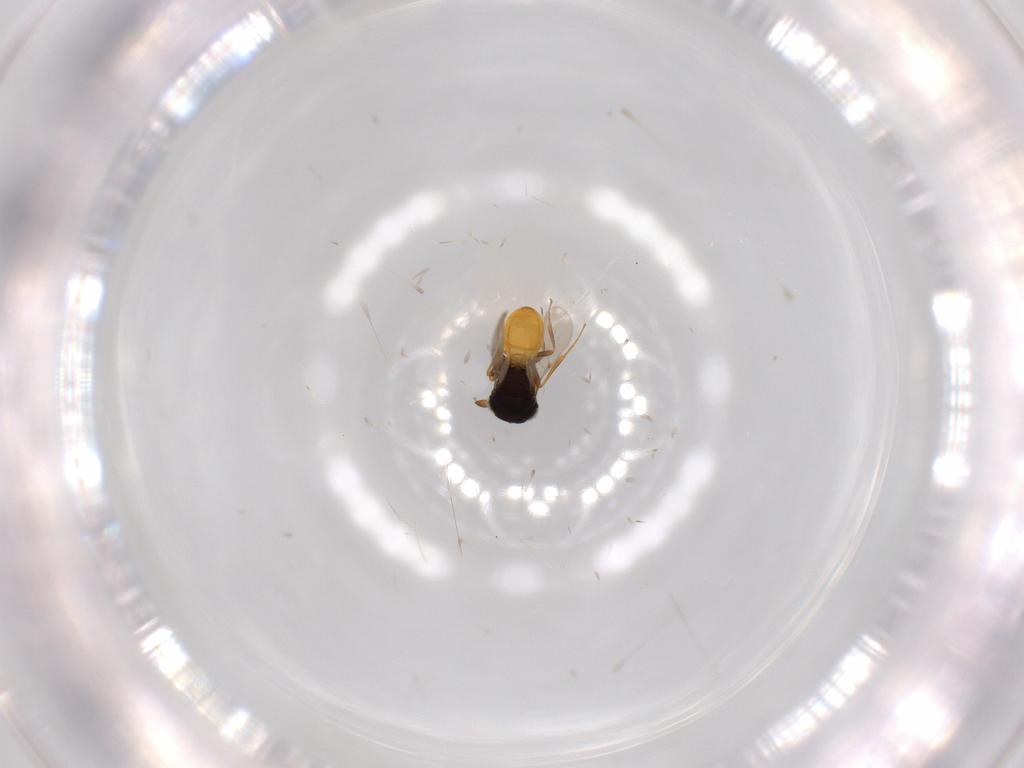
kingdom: Animalia
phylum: Arthropoda
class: Insecta
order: Hymenoptera
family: Scelionidae
